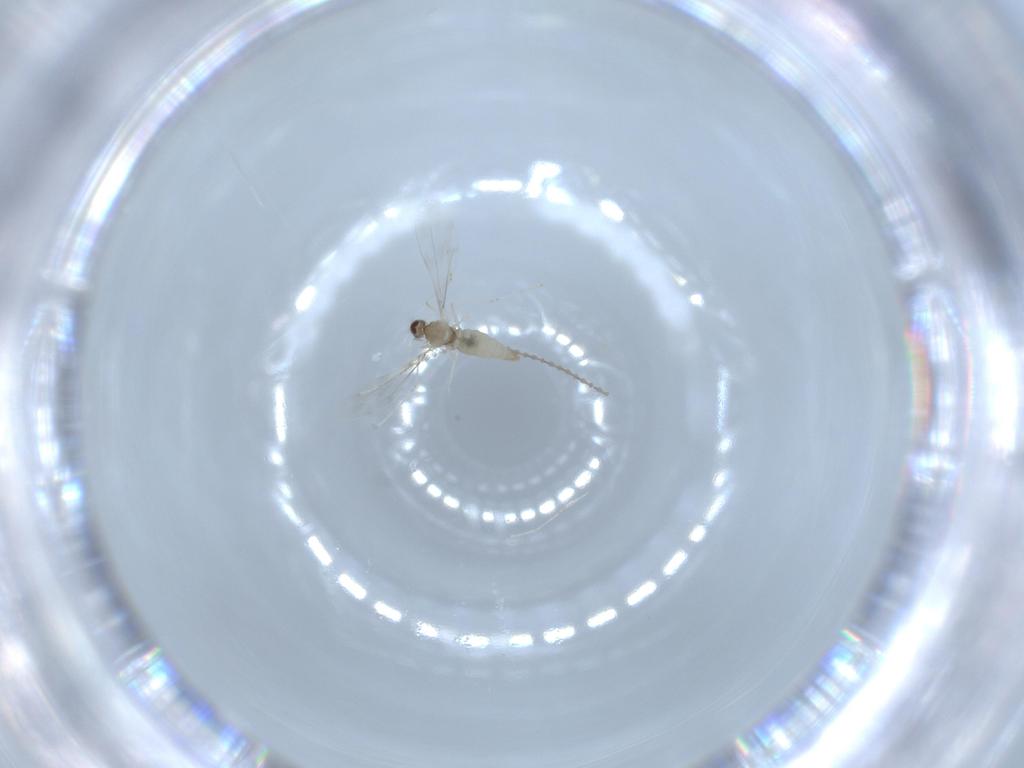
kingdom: Animalia
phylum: Arthropoda
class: Insecta
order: Diptera
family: Cecidomyiidae
